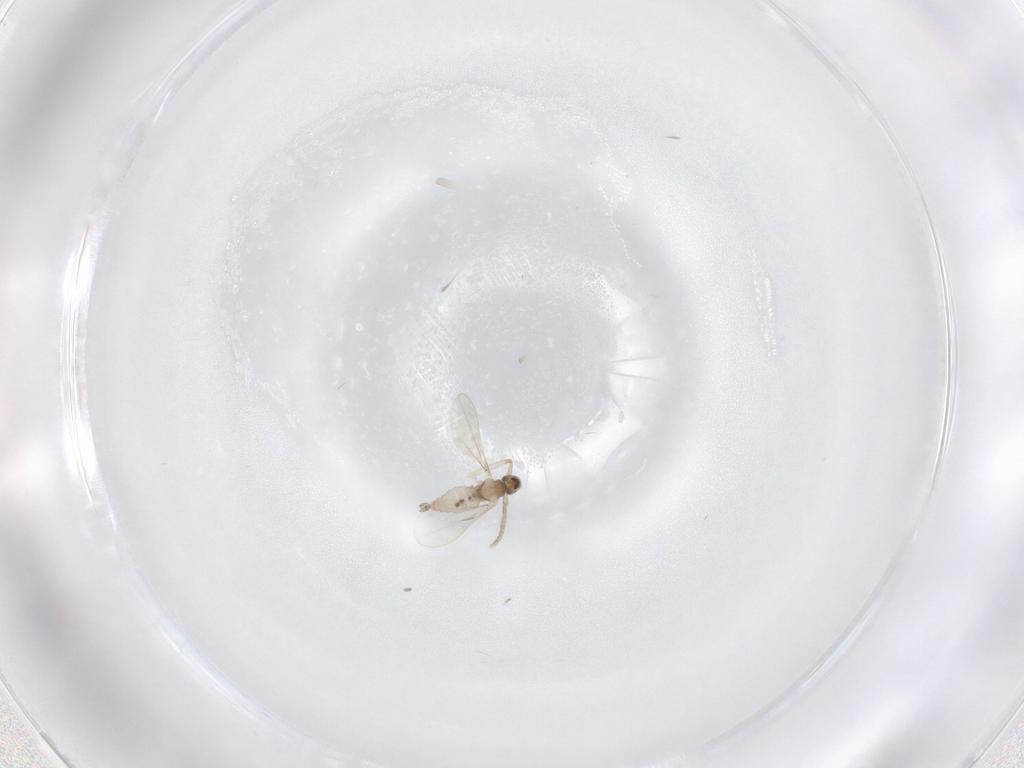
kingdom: Animalia
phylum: Arthropoda
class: Insecta
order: Diptera
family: Cecidomyiidae
